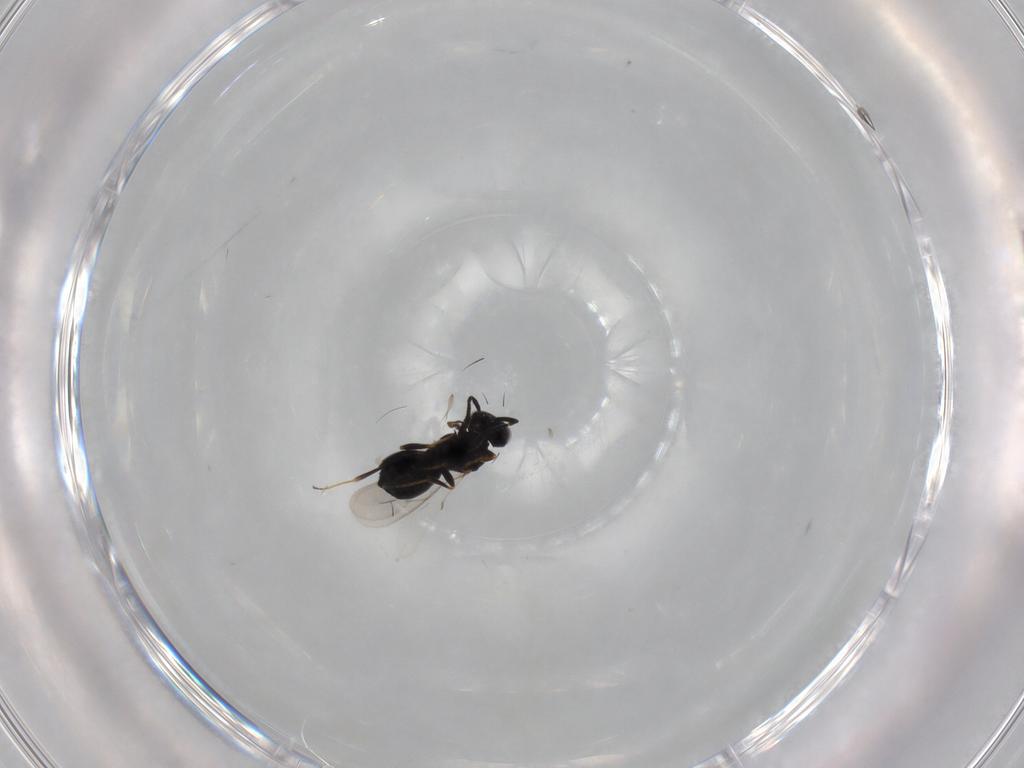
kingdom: Animalia
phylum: Arthropoda
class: Insecta
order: Hymenoptera
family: Scelionidae
